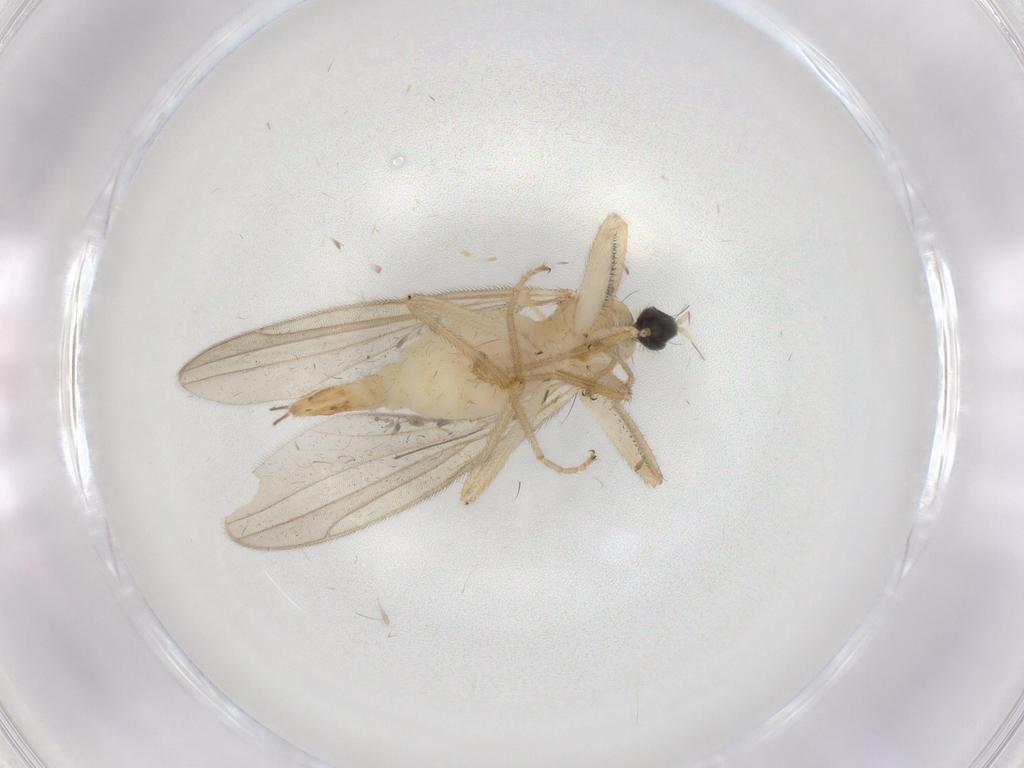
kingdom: Animalia
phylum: Arthropoda
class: Insecta
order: Diptera
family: Hybotidae
